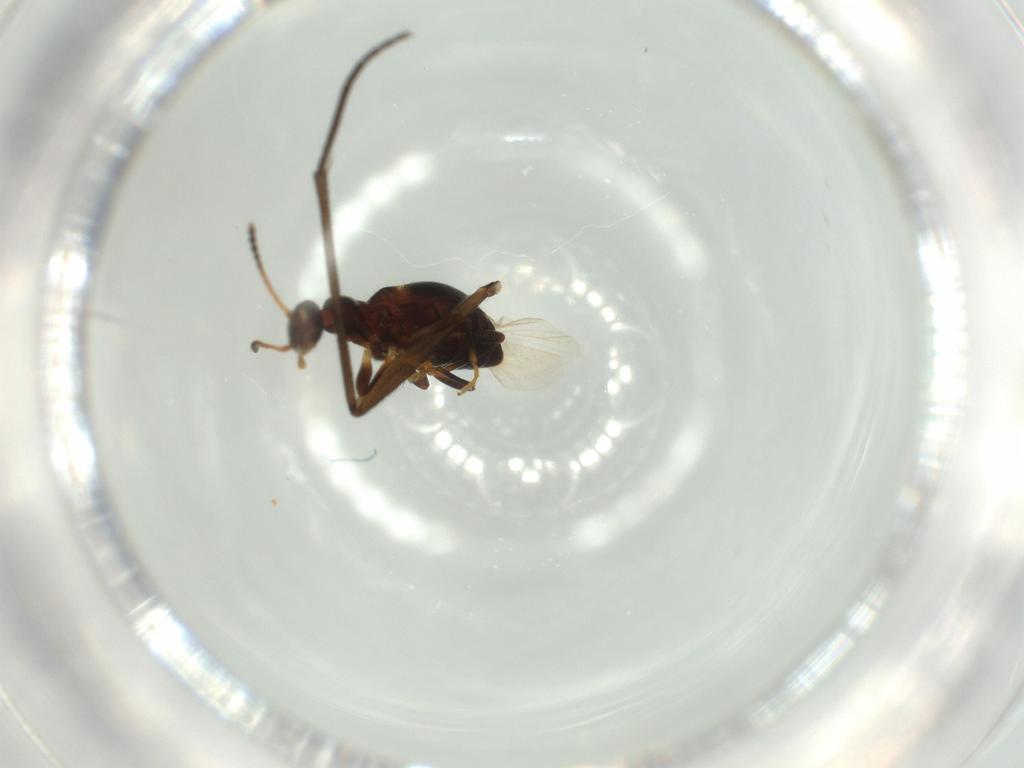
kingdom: Animalia
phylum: Arthropoda
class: Insecta
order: Coleoptera
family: Anthicidae
